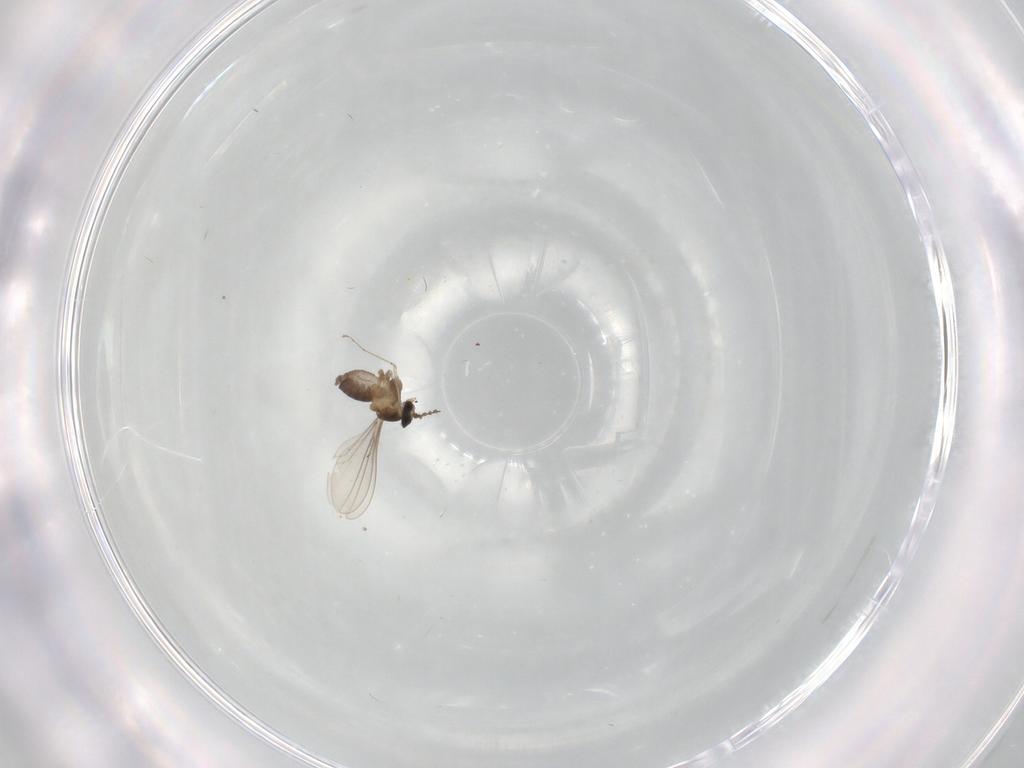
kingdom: Animalia
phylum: Arthropoda
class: Insecta
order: Diptera
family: Cecidomyiidae
